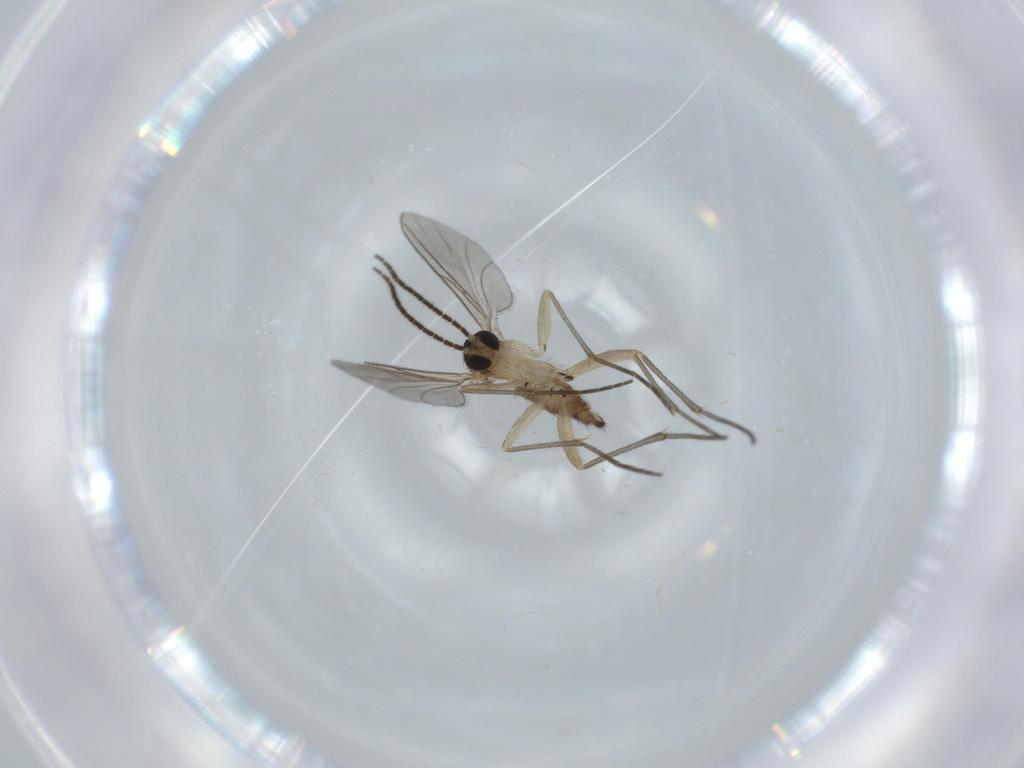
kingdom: Animalia
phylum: Arthropoda
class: Insecta
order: Diptera
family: Sciaridae
